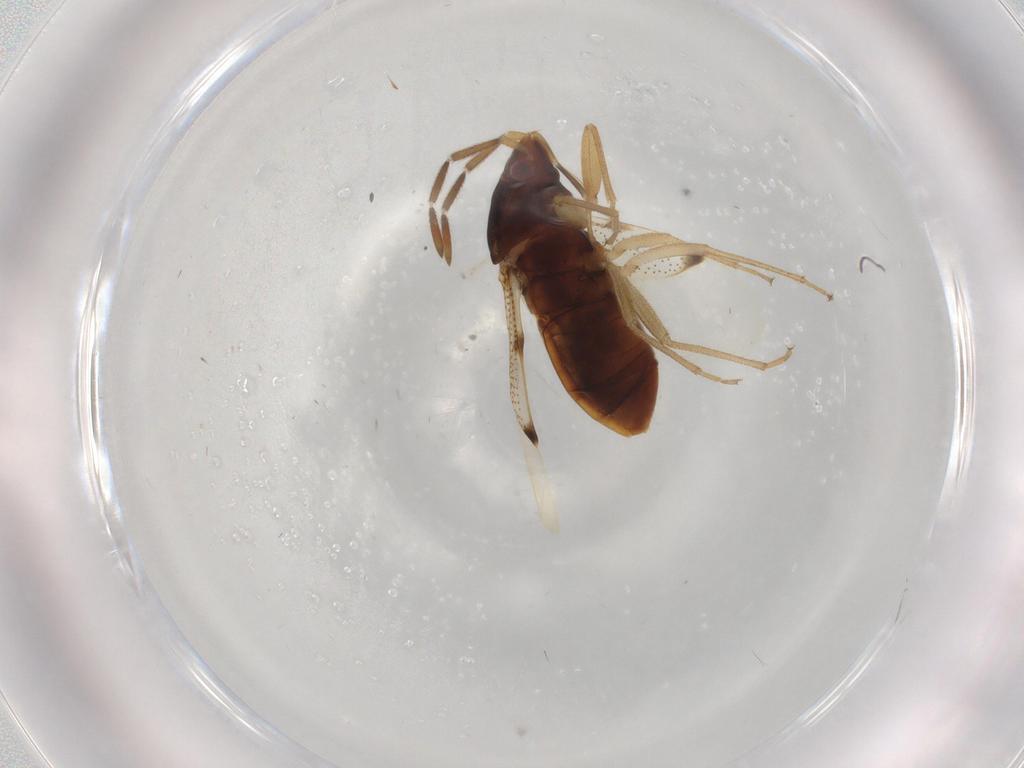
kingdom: Animalia
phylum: Arthropoda
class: Insecta
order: Hemiptera
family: Rhyparochromidae
